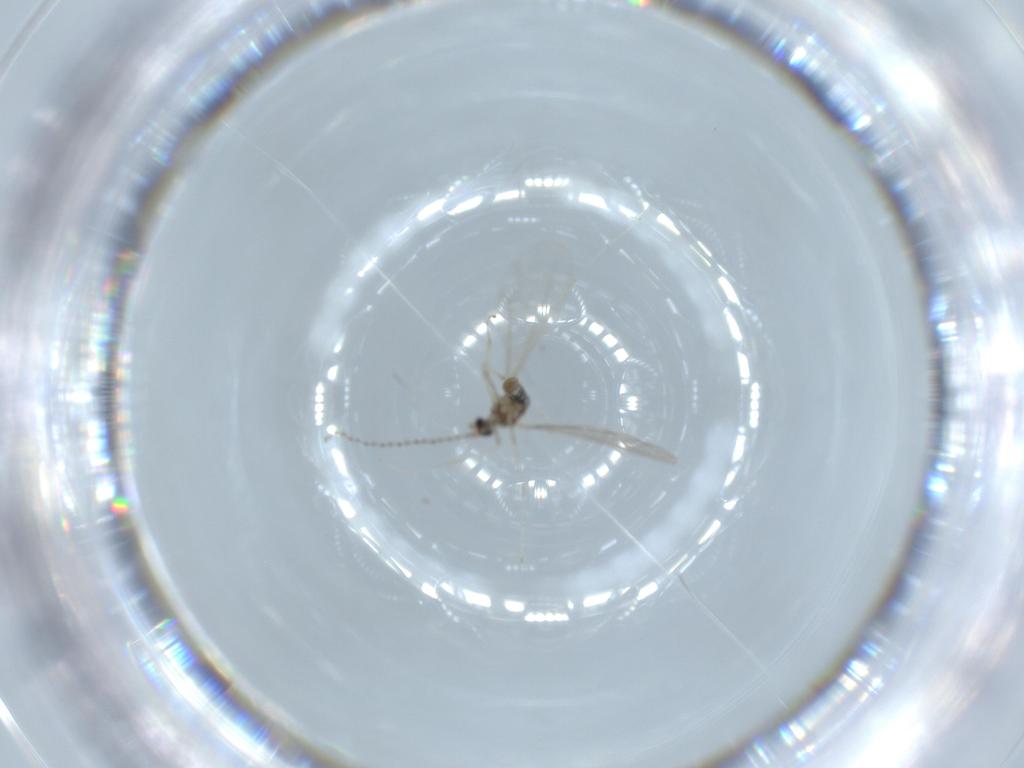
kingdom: Animalia
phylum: Arthropoda
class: Insecta
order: Diptera
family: Cecidomyiidae
